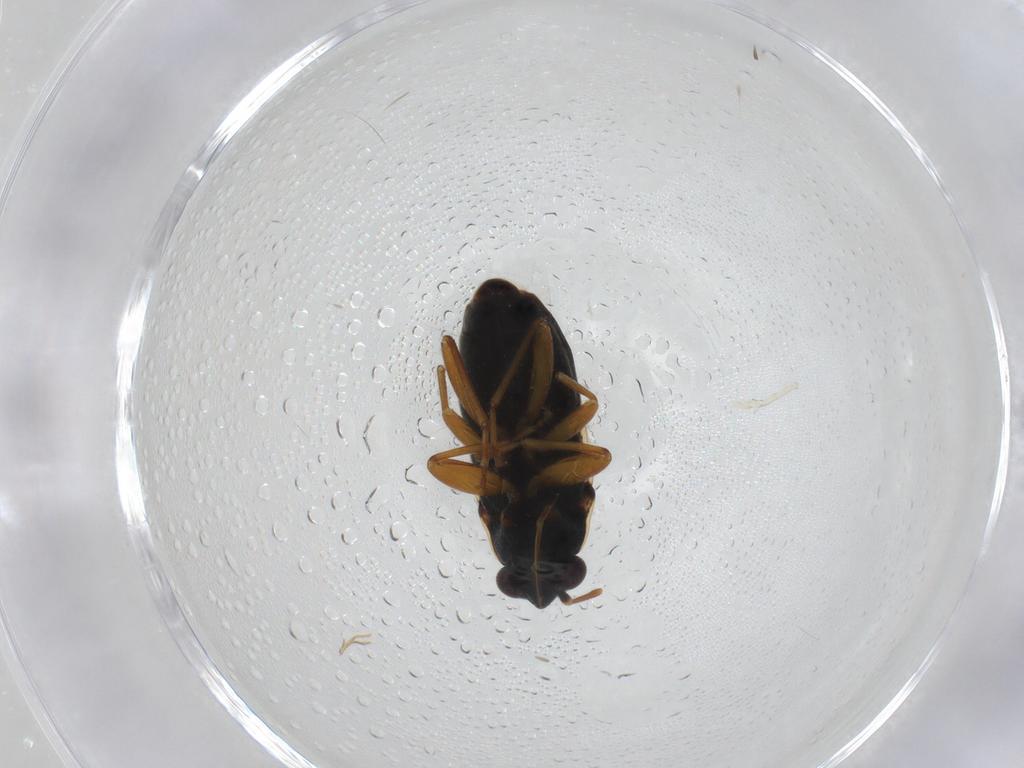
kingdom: Animalia
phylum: Arthropoda
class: Insecta
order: Hemiptera
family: Rhyparochromidae
